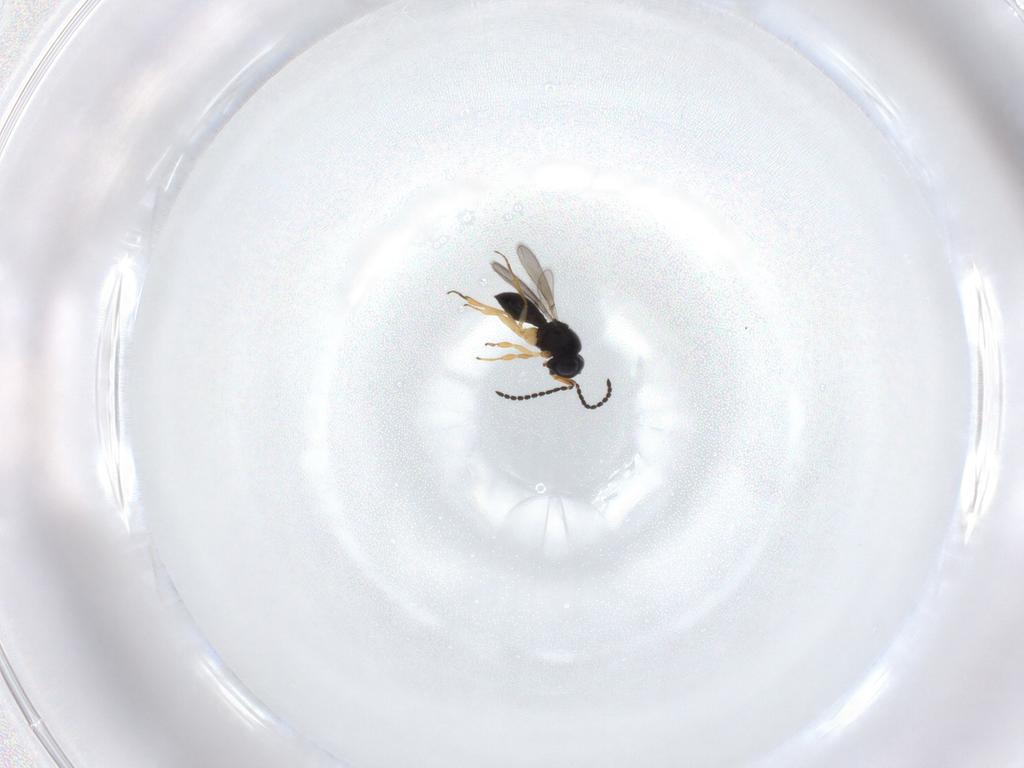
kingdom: Animalia
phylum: Arthropoda
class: Insecta
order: Hymenoptera
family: Scelionidae
